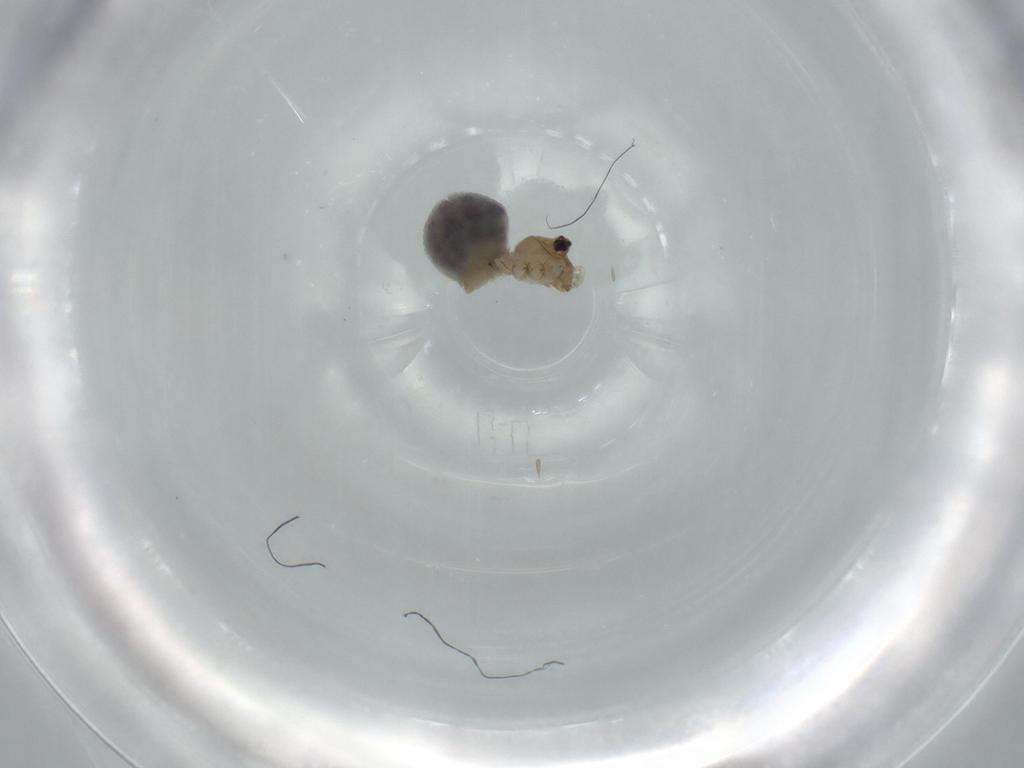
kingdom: Animalia
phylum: Arthropoda
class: Arachnida
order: Araneae
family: Pholcidae
